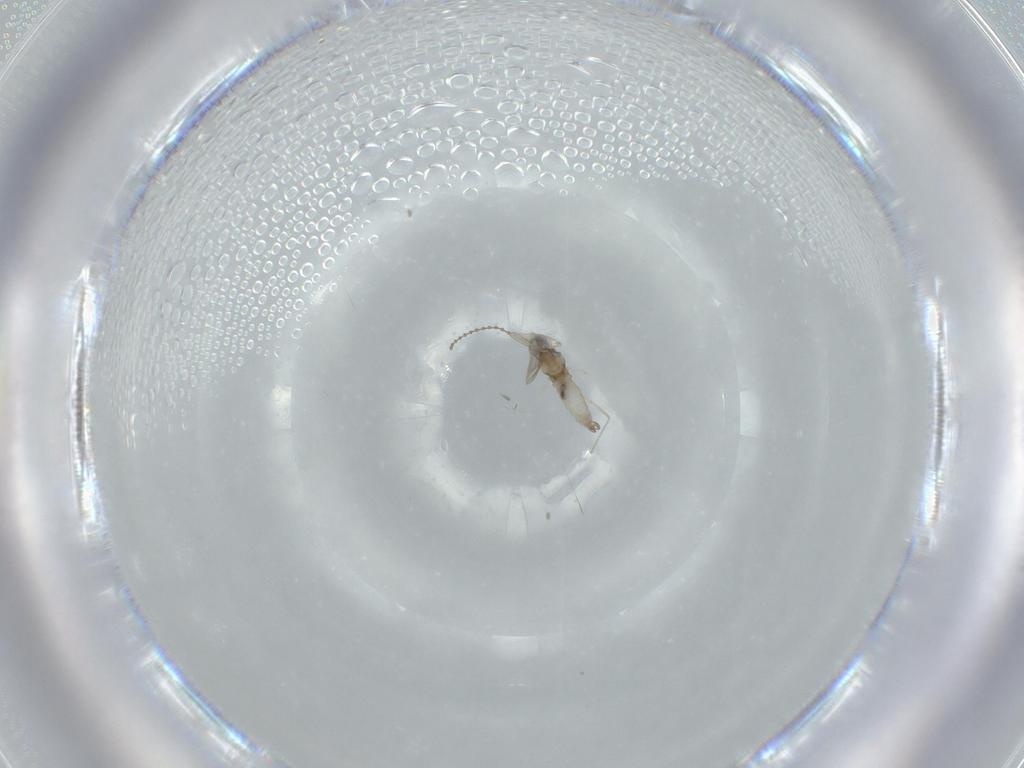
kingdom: Animalia
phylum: Arthropoda
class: Insecta
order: Diptera
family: Cecidomyiidae
